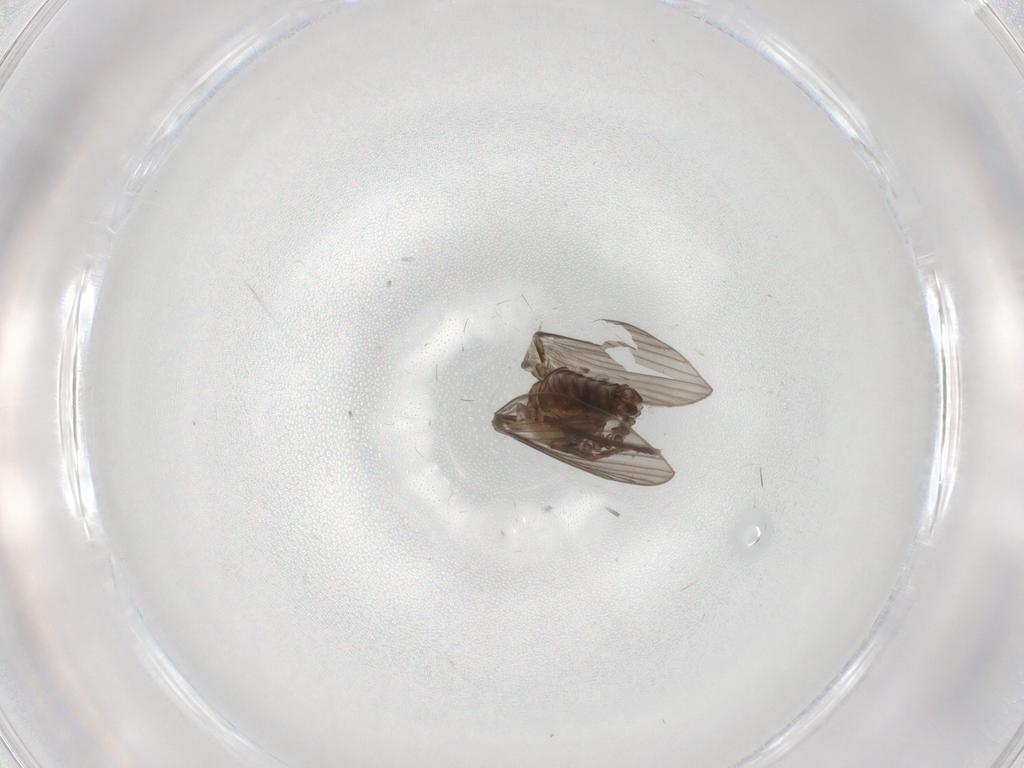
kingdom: Animalia
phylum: Arthropoda
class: Insecta
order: Diptera
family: Psychodidae
